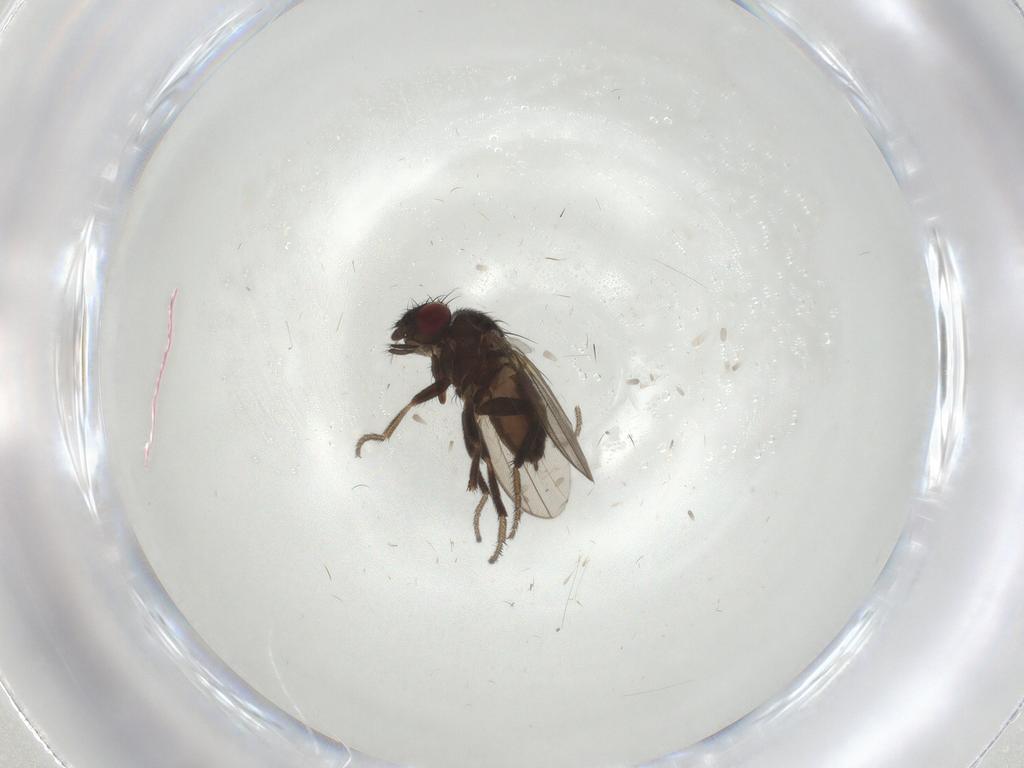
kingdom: Animalia
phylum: Arthropoda
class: Insecta
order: Diptera
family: Milichiidae
